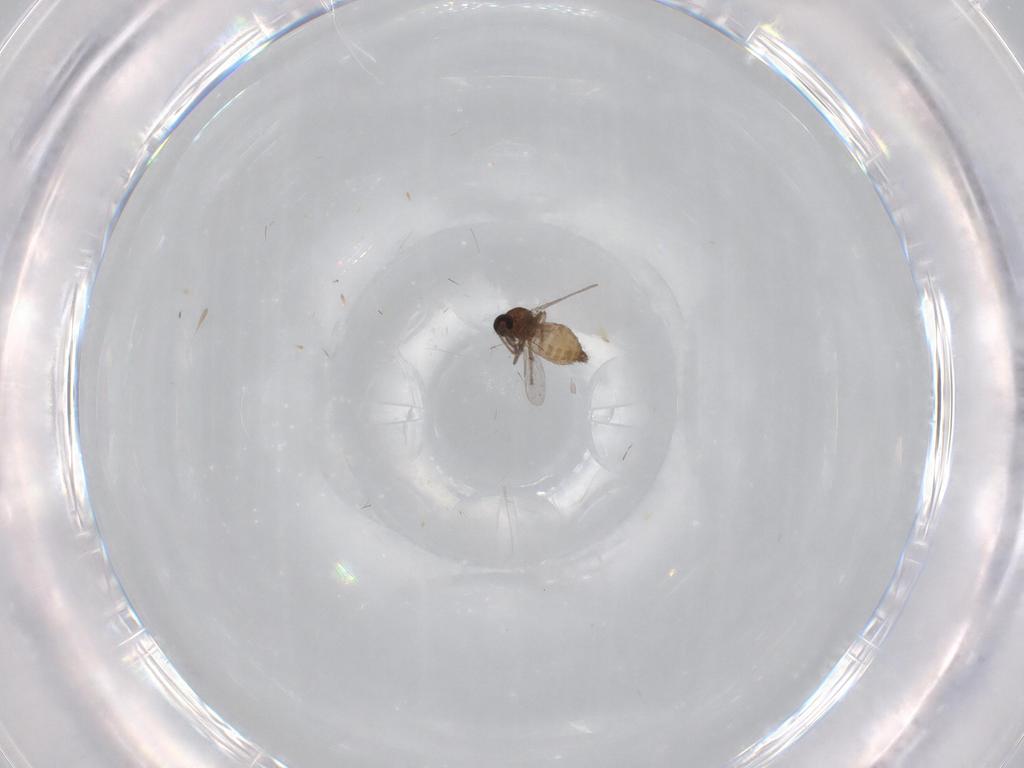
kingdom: Animalia
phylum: Arthropoda
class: Insecta
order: Diptera
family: Ceratopogonidae
